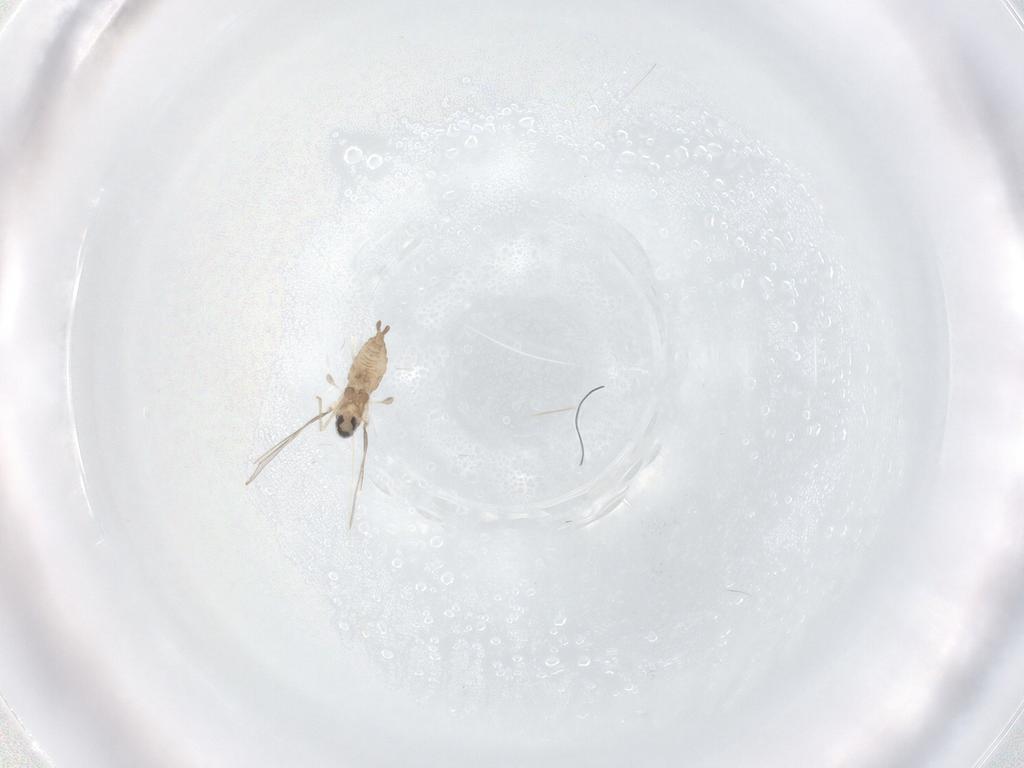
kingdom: Animalia
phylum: Arthropoda
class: Insecta
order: Diptera
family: Cecidomyiidae
